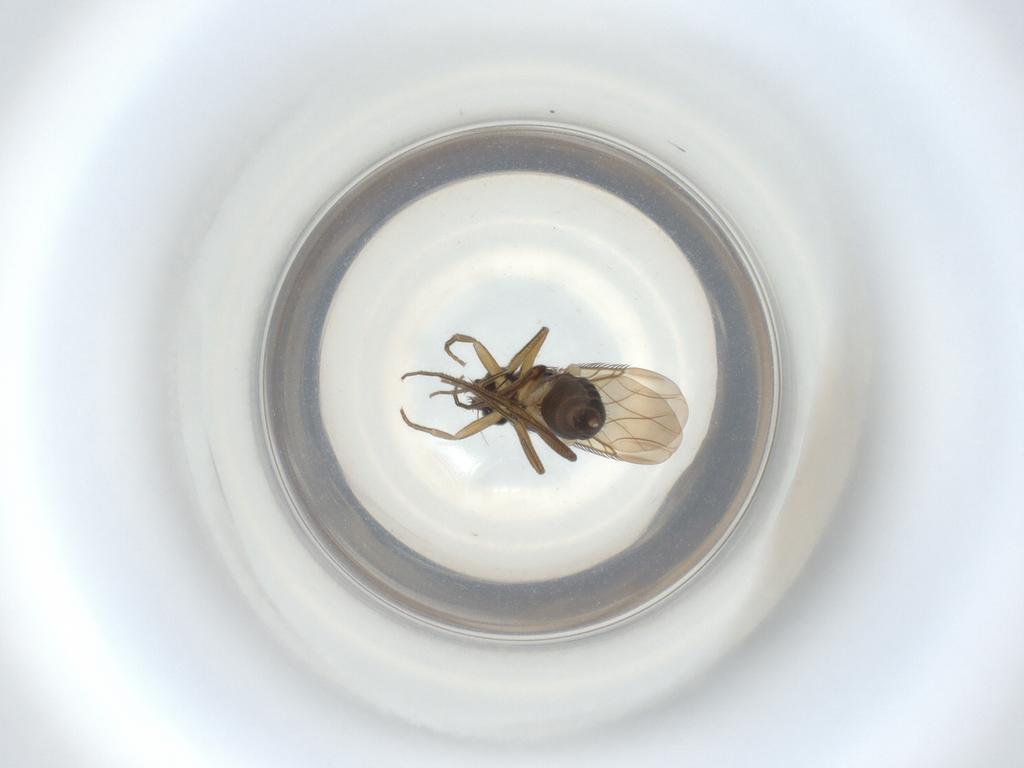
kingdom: Animalia
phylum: Arthropoda
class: Insecta
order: Diptera
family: Phoridae
